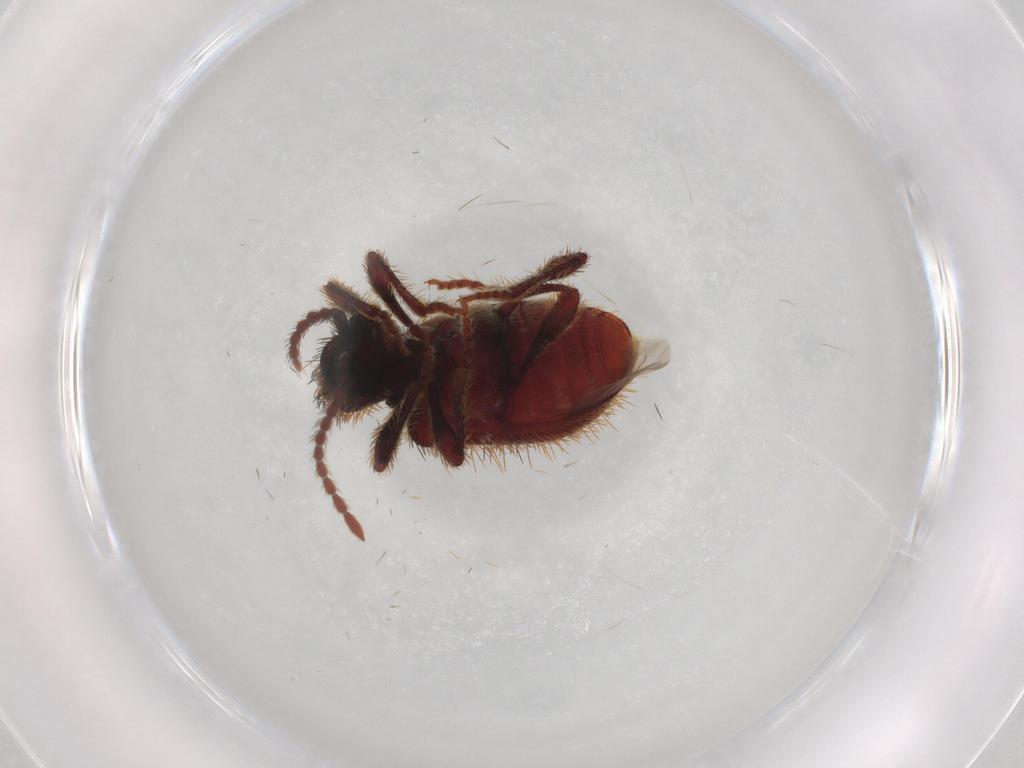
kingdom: Animalia
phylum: Arthropoda
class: Insecta
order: Coleoptera
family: Ptinidae
